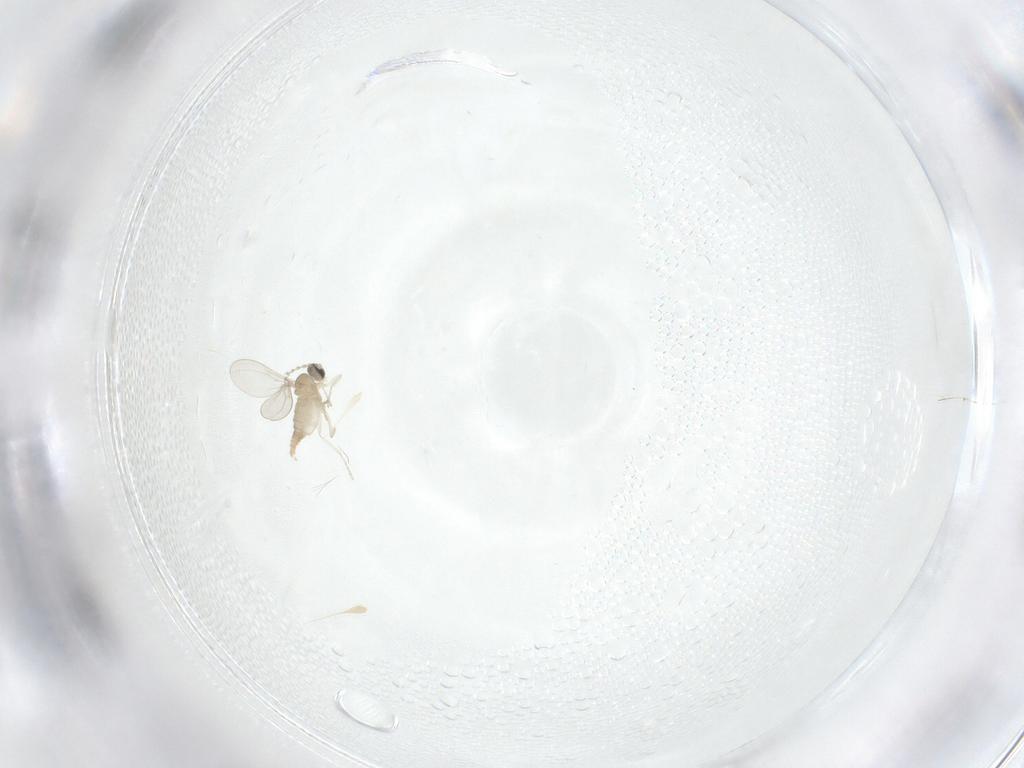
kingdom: Animalia
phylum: Arthropoda
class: Insecta
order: Diptera
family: Cecidomyiidae
